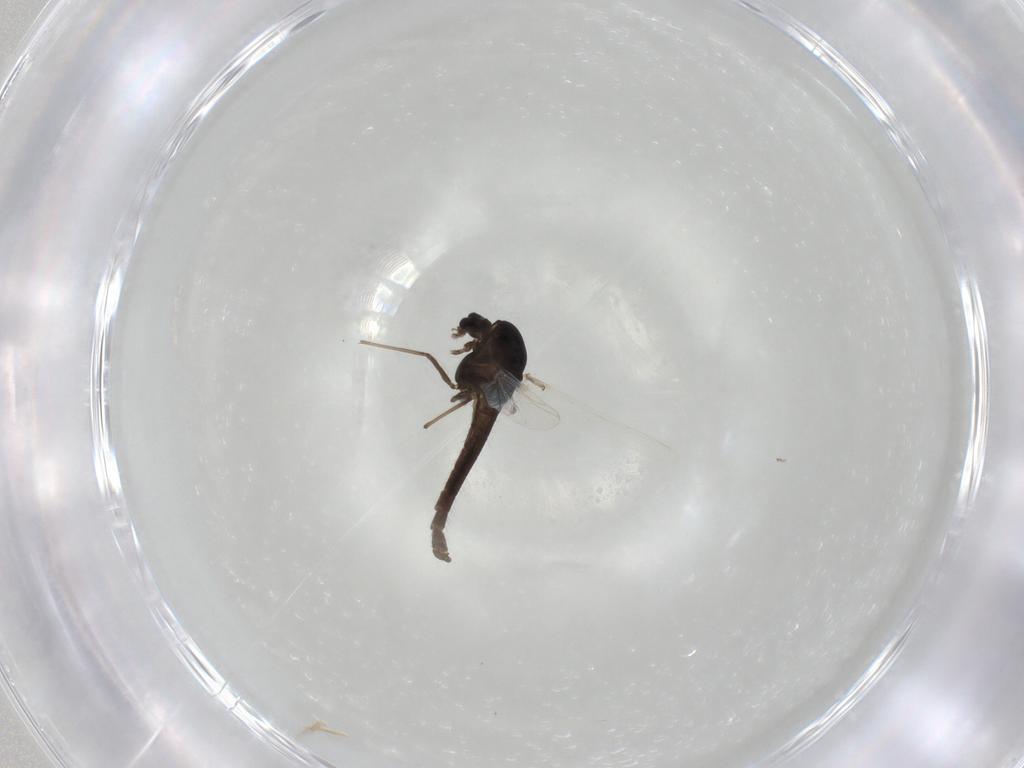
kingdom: Animalia
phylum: Arthropoda
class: Insecta
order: Diptera
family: Chironomidae
